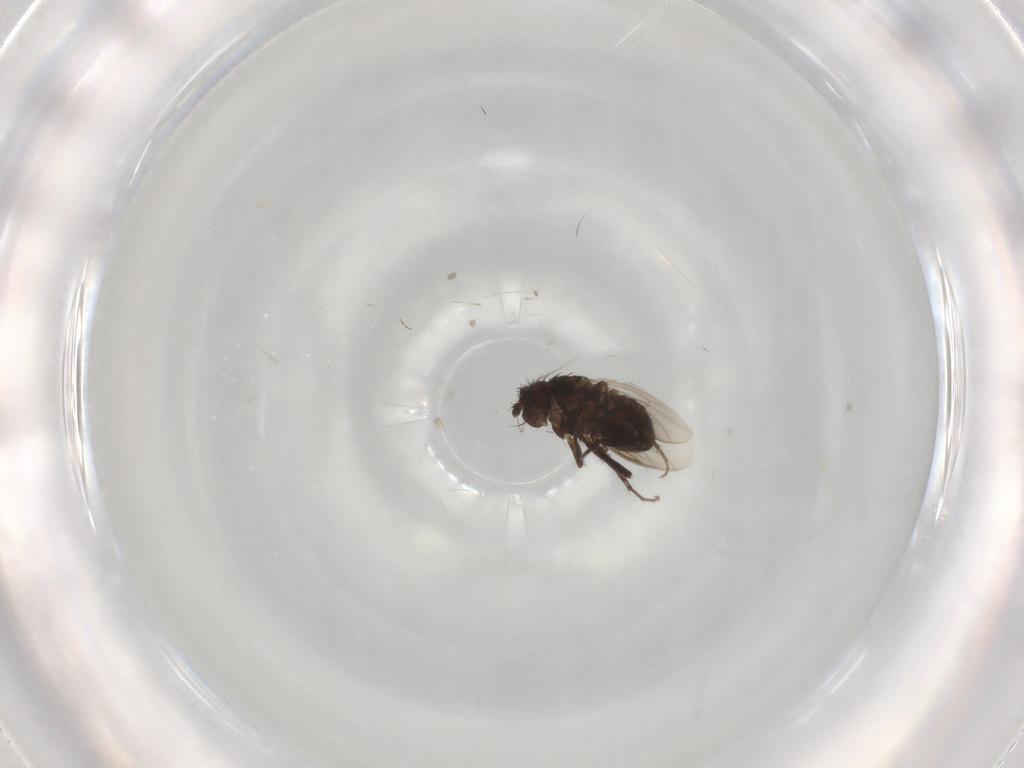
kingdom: Animalia
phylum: Arthropoda
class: Insecta
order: Diptera
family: Sphaeroceridae
